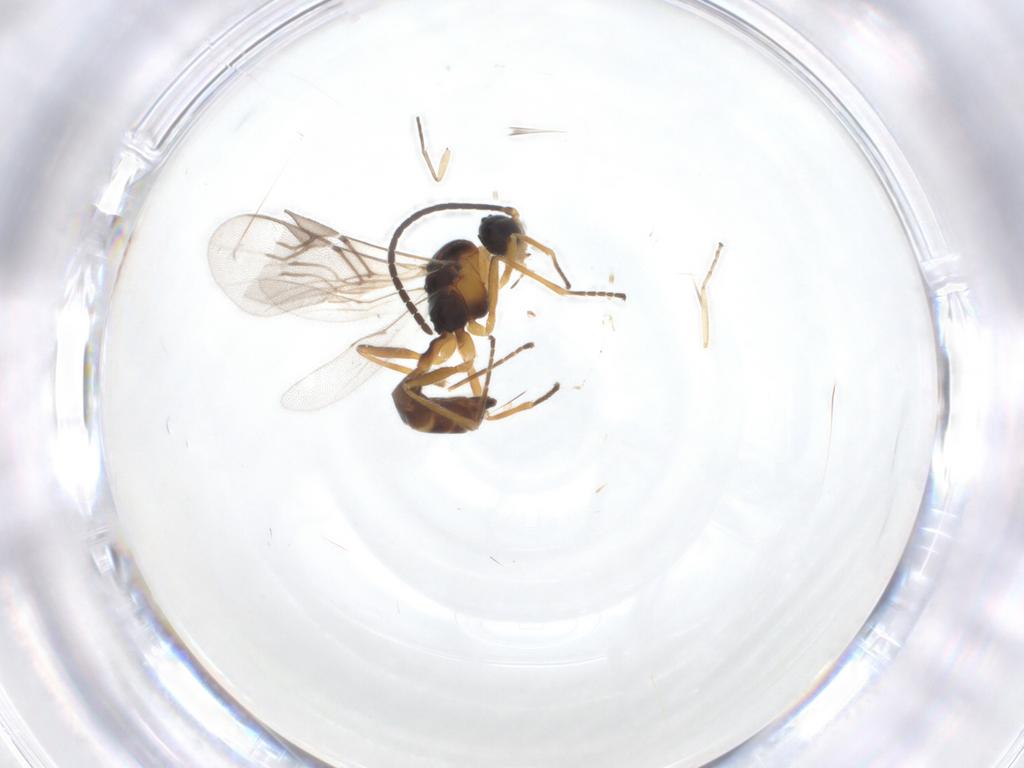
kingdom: Animalia
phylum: Arthropoda
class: Insecta
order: Hymenoptera
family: Braconidae
